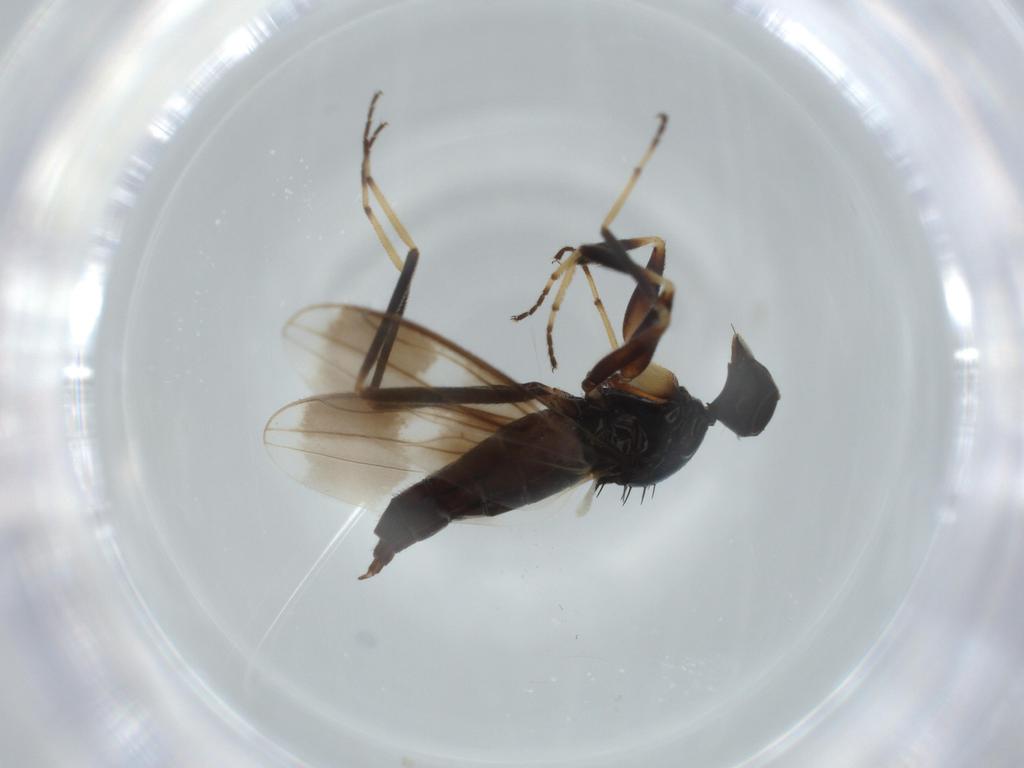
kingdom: Animalia
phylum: Arthropoda
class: Insecta
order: Diptera
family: Hybotidae
